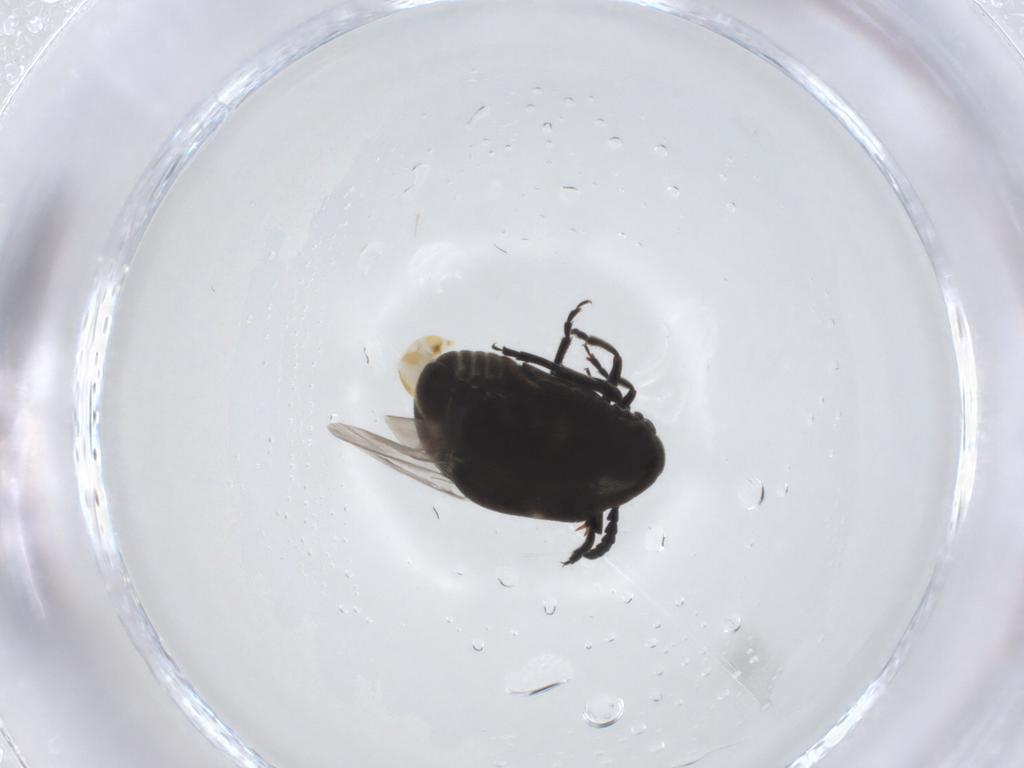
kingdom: Animalia
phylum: Arthropoda
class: Insecta
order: Coleoptera
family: Chrysomelidae
